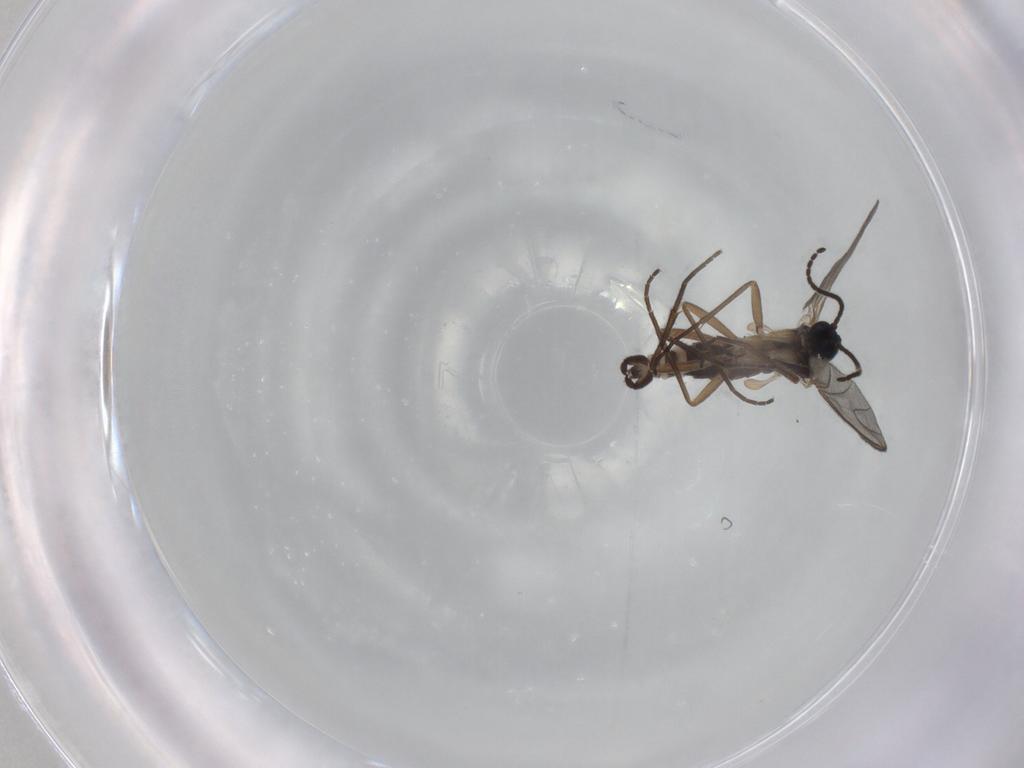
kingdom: Animalia
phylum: Arthropoda
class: Insecta
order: Diptera
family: Sciaridae
